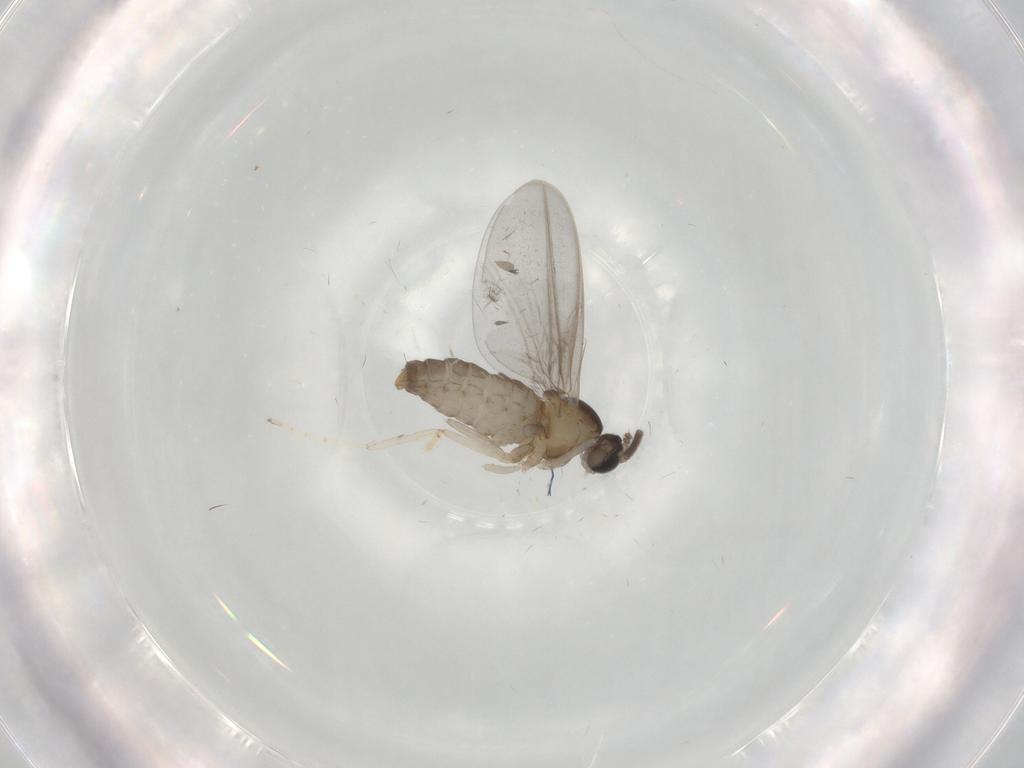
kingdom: Animalia
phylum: Arthropoda
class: Insecta
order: Diptera
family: Cecidomyiidae
